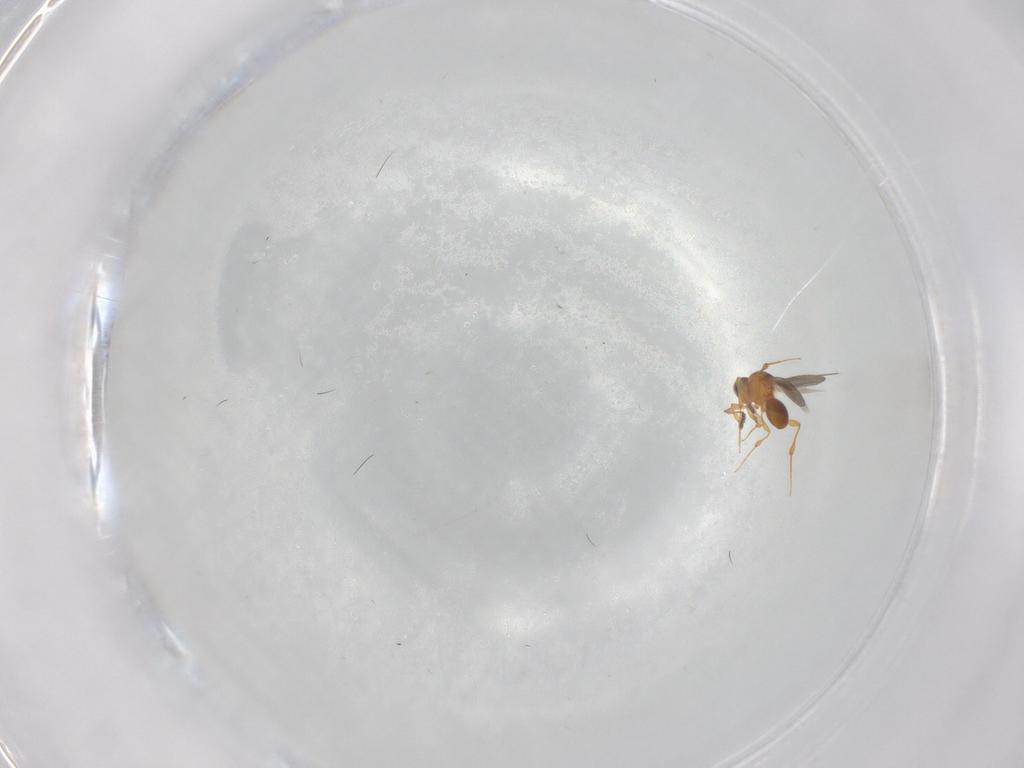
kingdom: Animalia
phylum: Arthropoda
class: Insecta
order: Hymenoptera
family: Platygastridae
